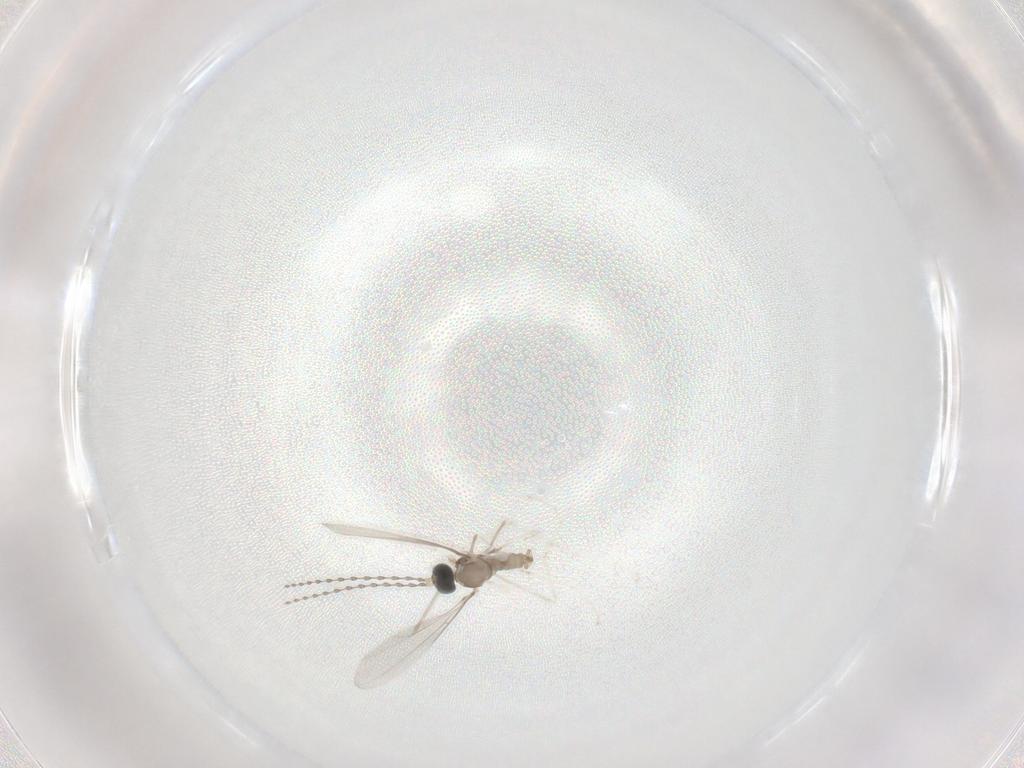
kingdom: Animalia
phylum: Arthropoda
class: Insecta
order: Diptera
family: Cecidomyiidae
